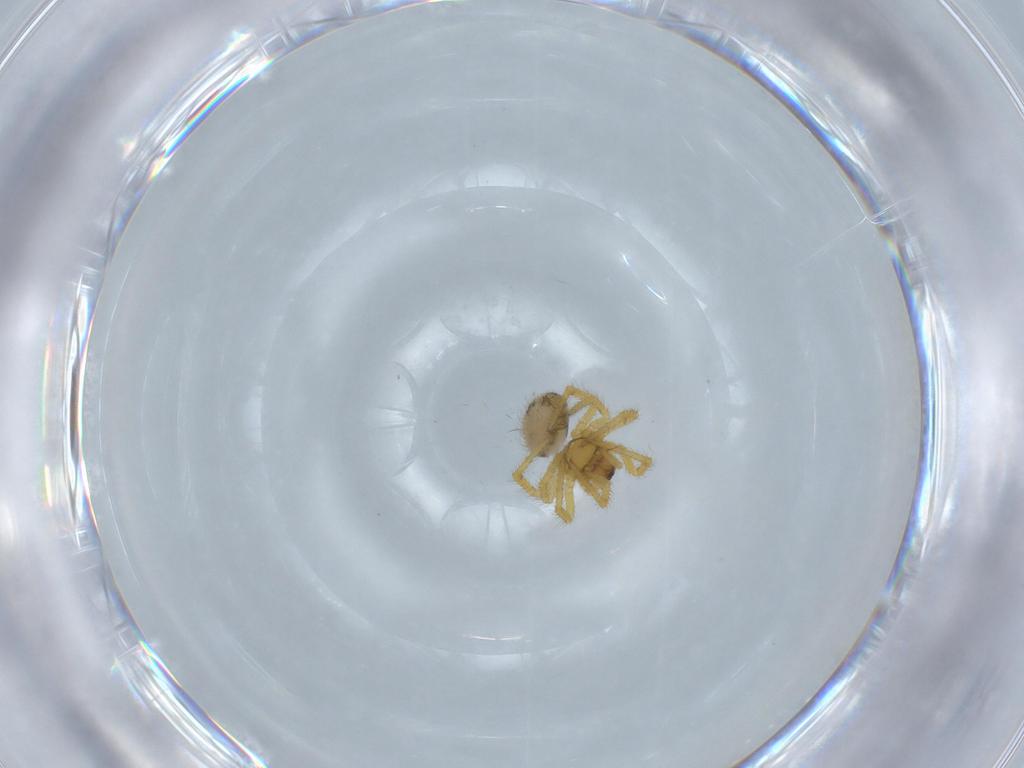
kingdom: Animalia
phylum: Arthropoda
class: Arachnida
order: Araneae
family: Theridiidae
